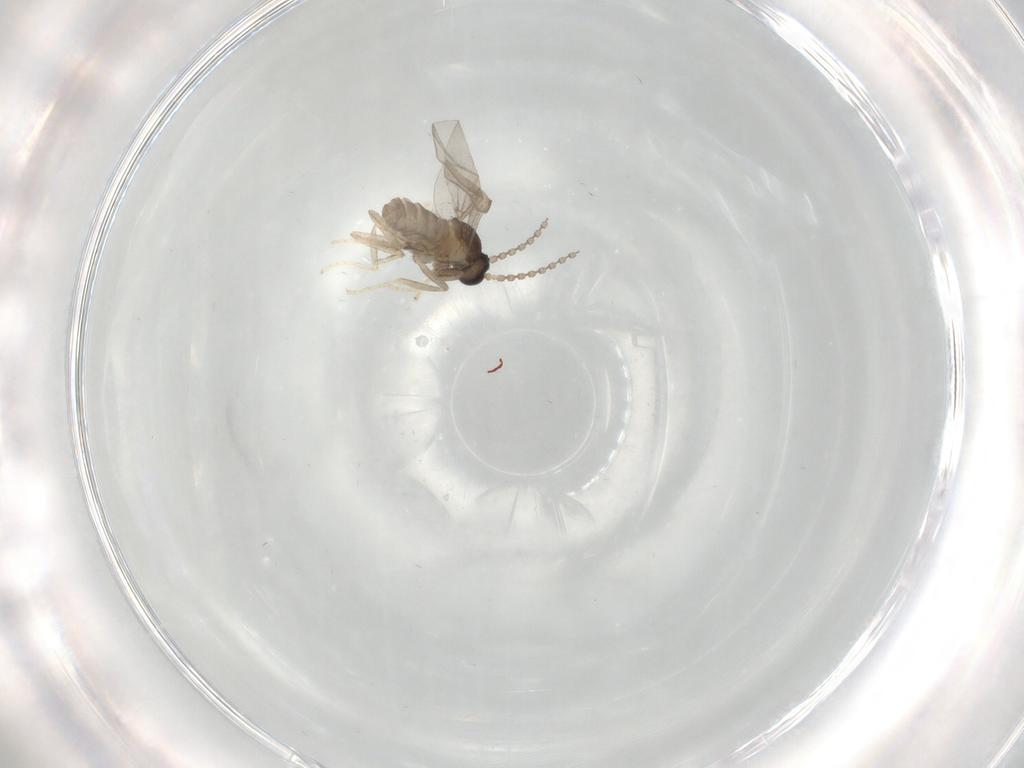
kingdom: Animalia
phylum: Arthropoda
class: Insecta
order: Diptera
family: Cecidomyiidae
